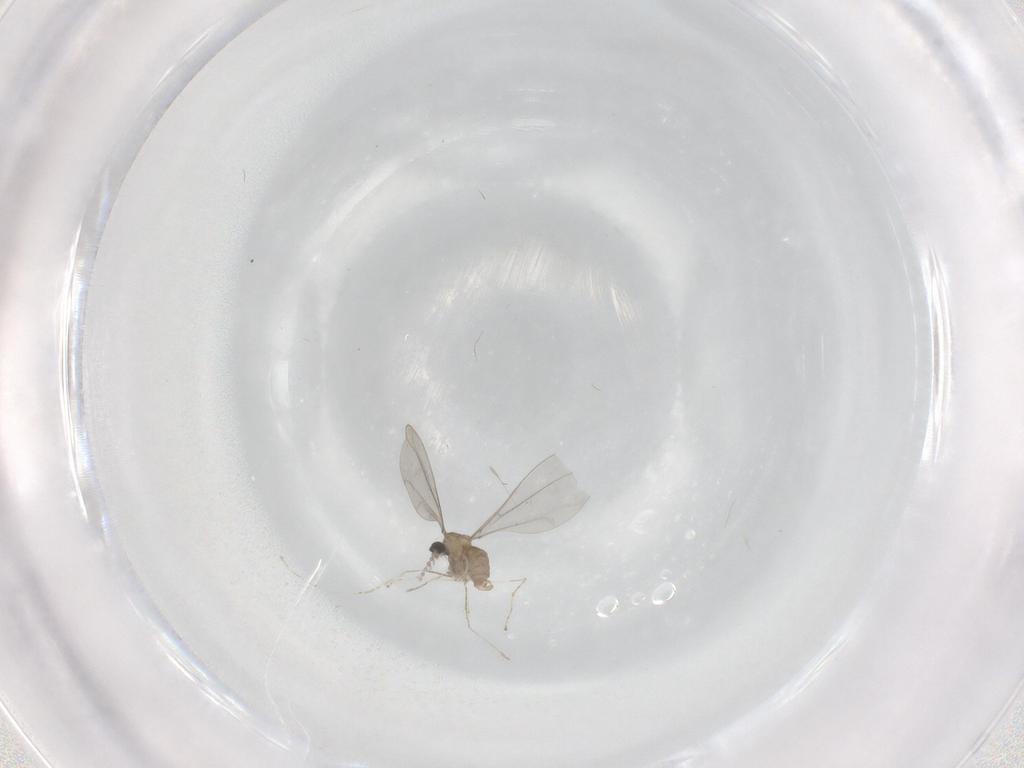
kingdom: Animalia
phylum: Arthropoda
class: Insecta
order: Diptera
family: Cecidomyiidae
